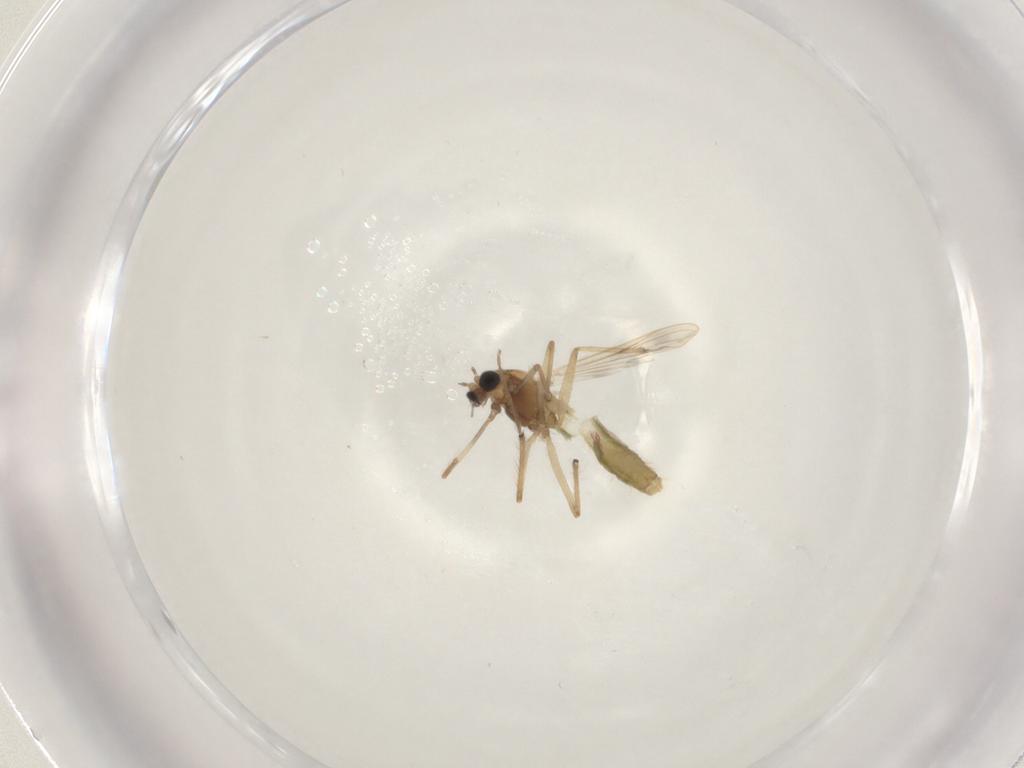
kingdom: Animalia
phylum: Arthropoda
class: Insecta
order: Diptera
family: Chironomidae
